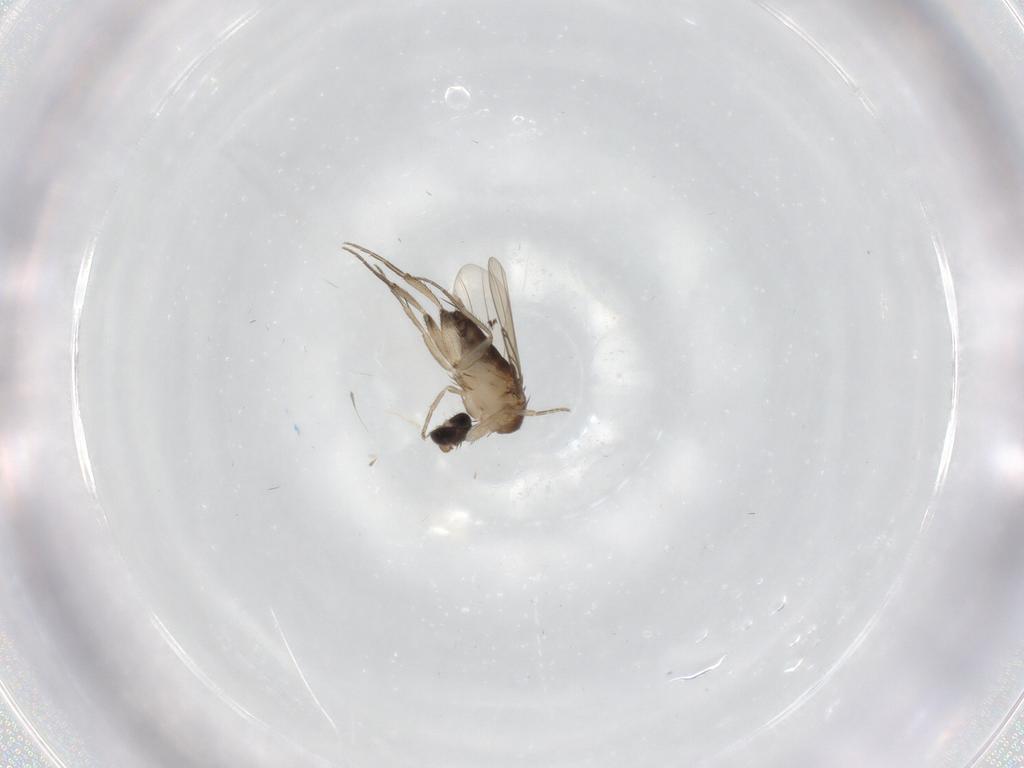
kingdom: Animalia
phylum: Arthropoda
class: Insecta
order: Diptera
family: Phoridae
